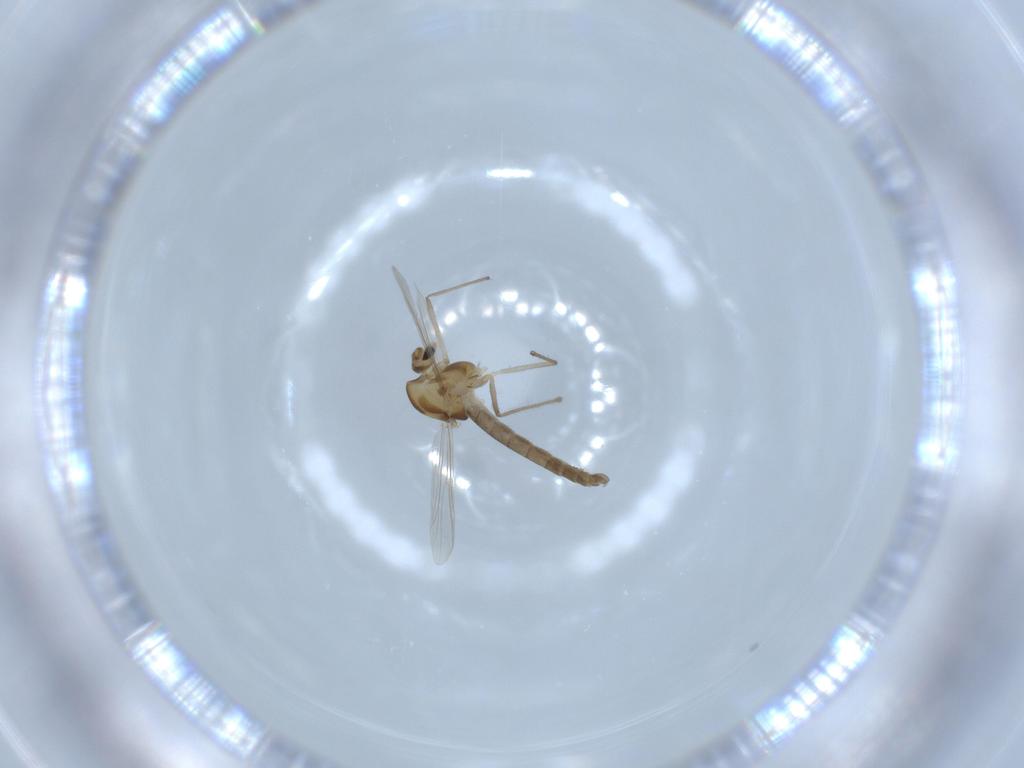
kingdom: Animalia
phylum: Arthropoda
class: Insecta
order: Diptera
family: Chironomidae
